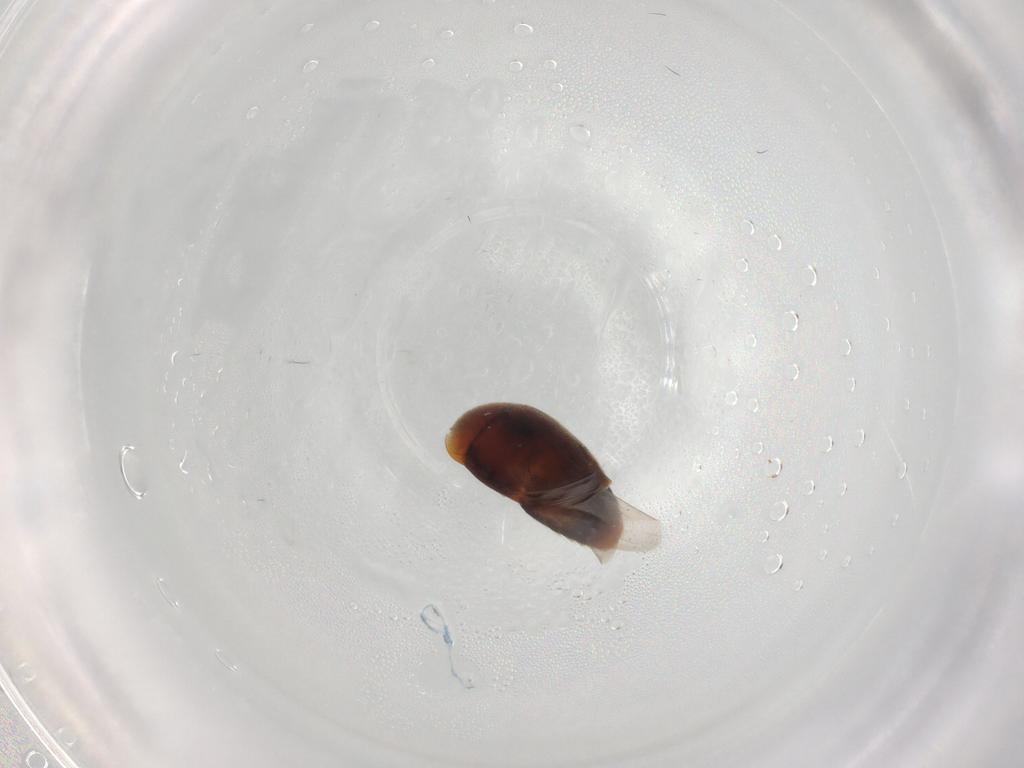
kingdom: Animalia
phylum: Arthropoda
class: Insecta
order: Coleoptera
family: Corylophidae
